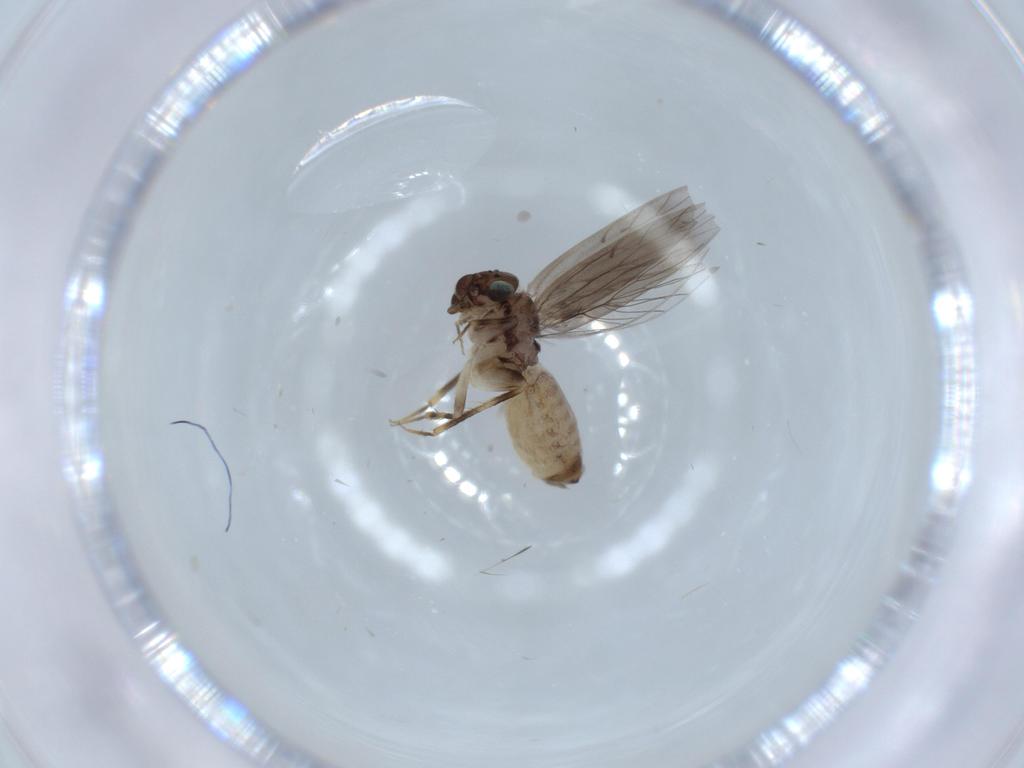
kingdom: Animalia
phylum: Arthropoda
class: Insecta
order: Psocodea
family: Lepidopsocidae
